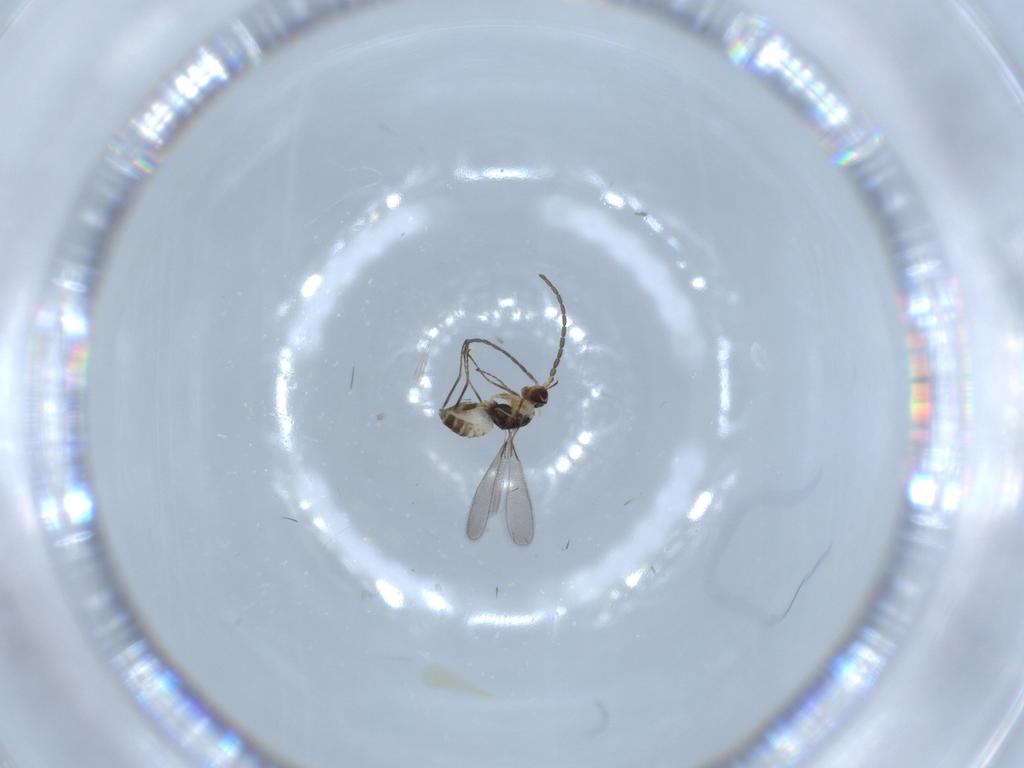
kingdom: Animalia
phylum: Arthropoda
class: Insecta
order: Hymenoptera
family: Mymaridae
